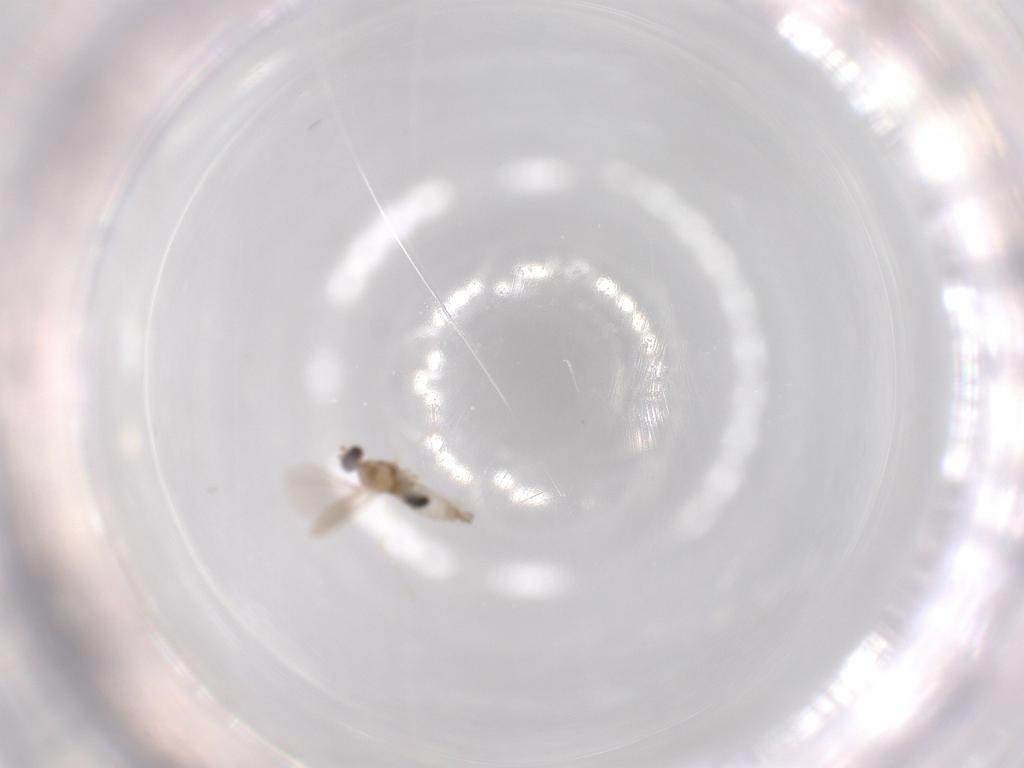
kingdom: Animalia
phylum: Arthropoda
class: Insecta
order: Diptera
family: Cecidomyiidae
